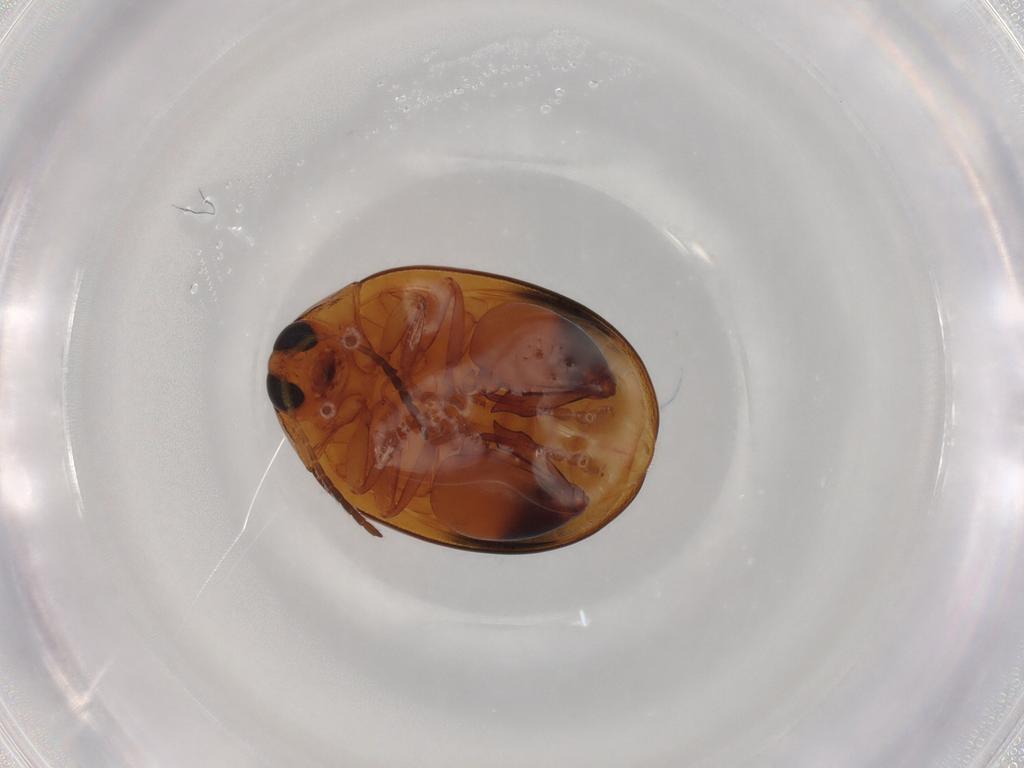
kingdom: Animalia
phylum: Arthropoda
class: Insecta
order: Coleoptera
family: Chrysomelidae
